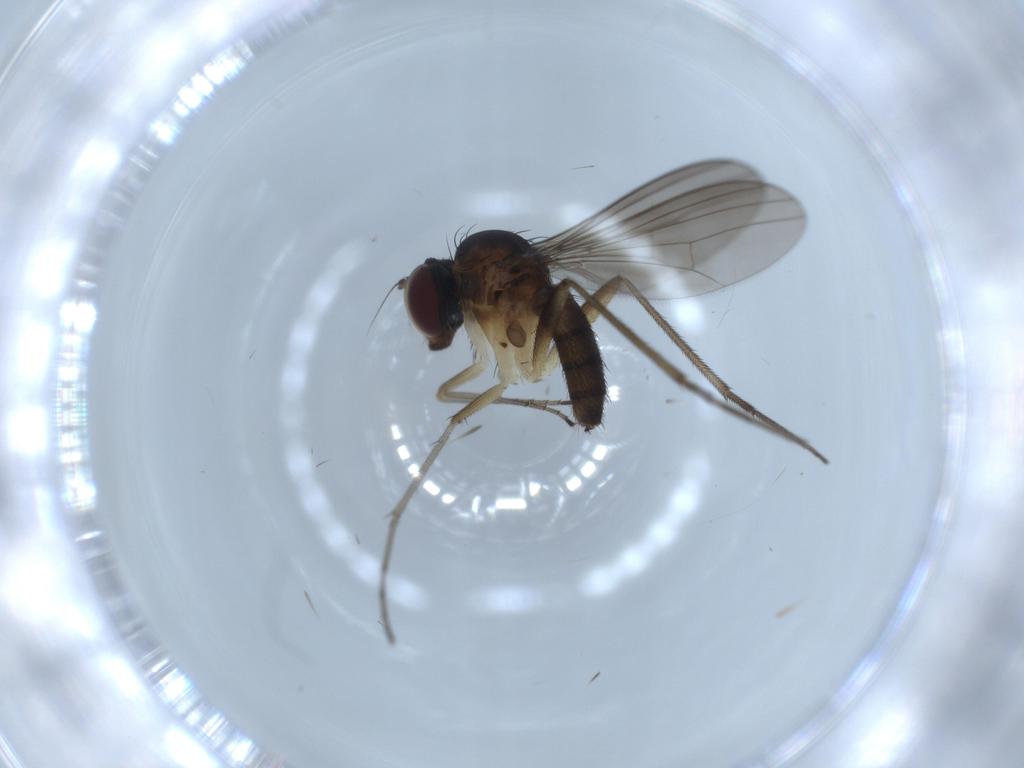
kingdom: Animalia
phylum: Arthropoda
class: Insecta
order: Diptera
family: Dolichopodidae
